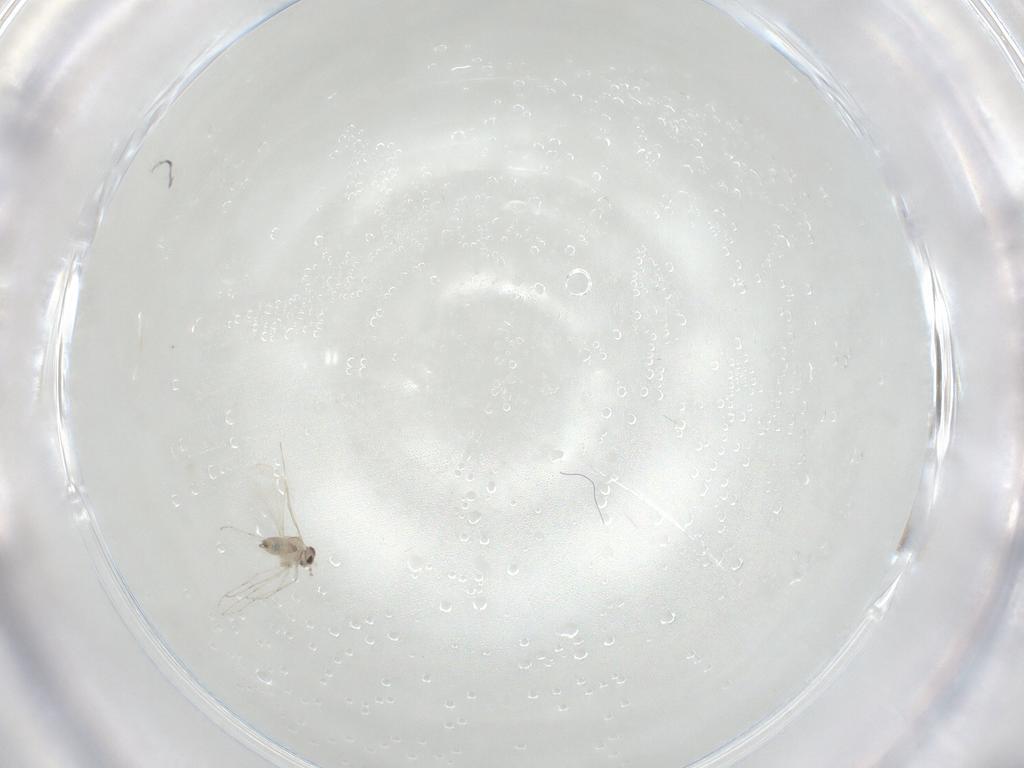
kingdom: Animalia
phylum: Arthropoda
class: Insecta
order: Diptera
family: Cecidomyiidae
